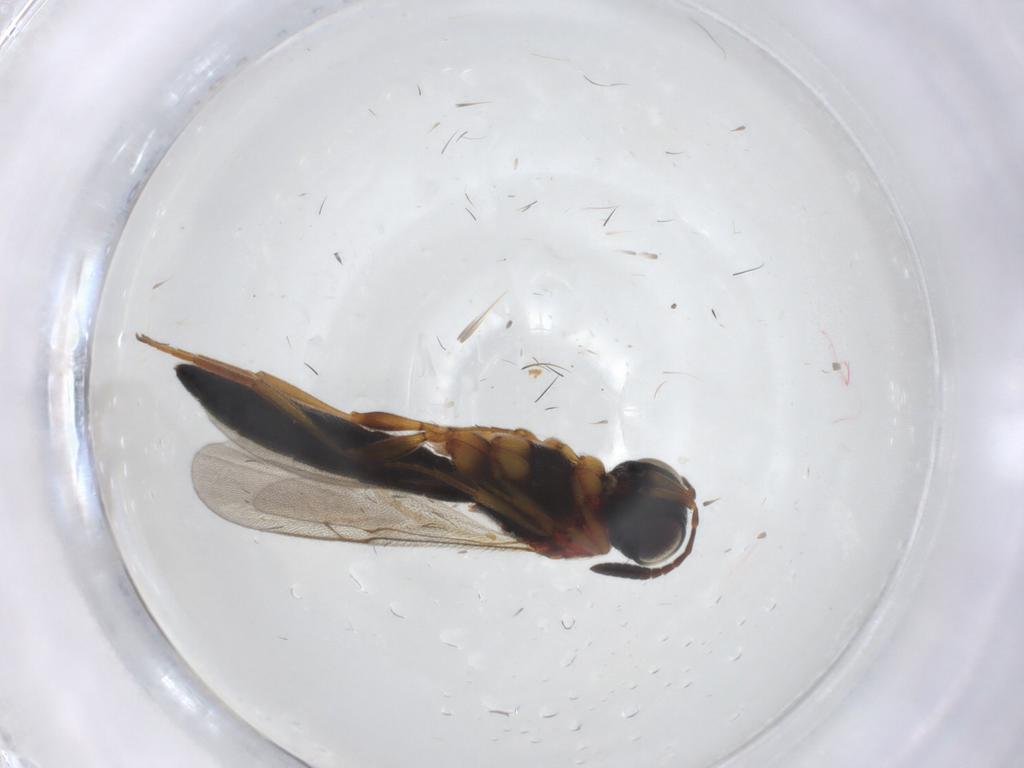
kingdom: Animalia
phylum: Arthropoda
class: Insecta
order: Hymenoptera
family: Scelionidae
